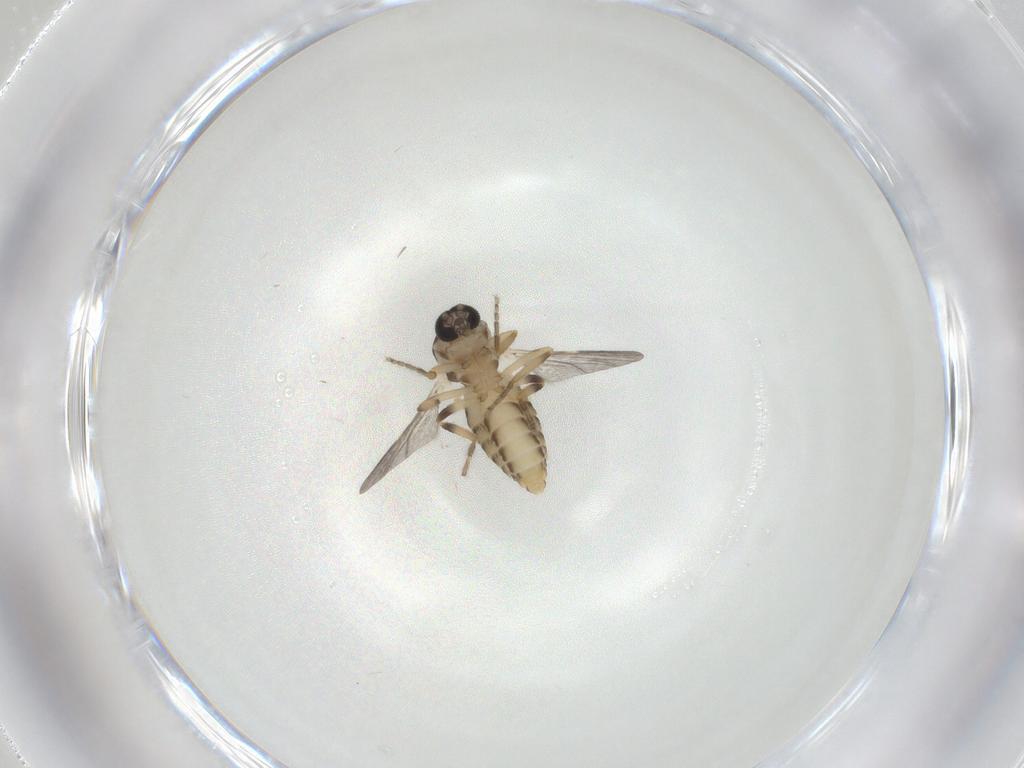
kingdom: Animalia
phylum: Arthropoda
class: Insecta
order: Diptera
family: Ceratopogonidae
